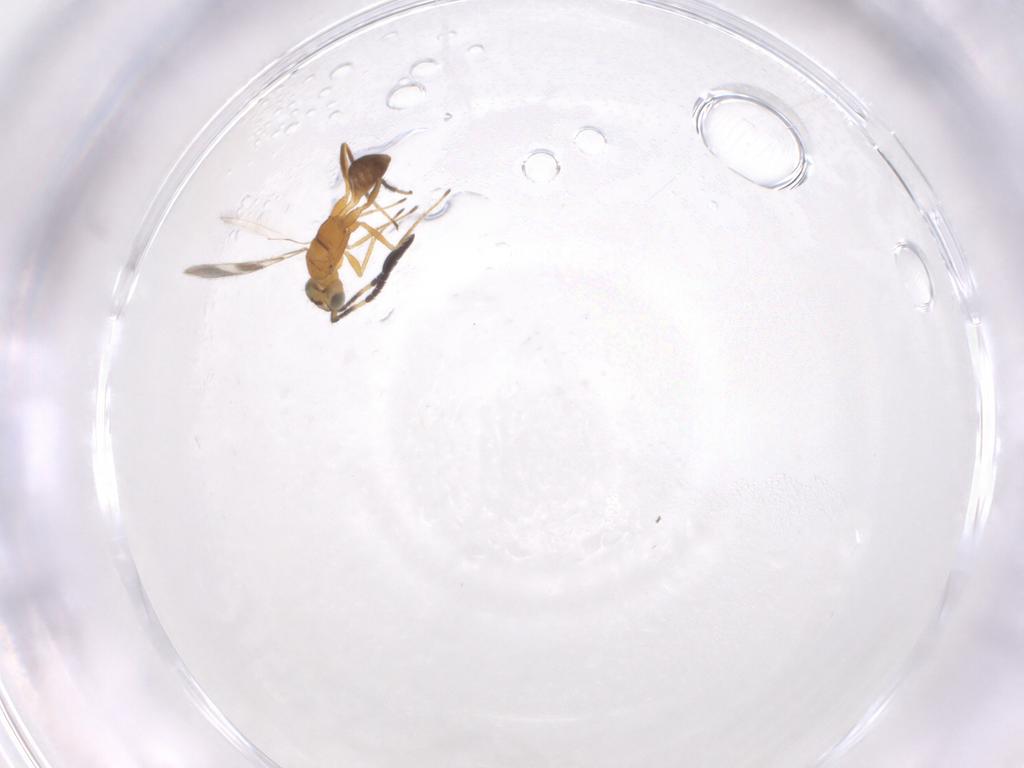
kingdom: Animalia
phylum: Arthropoda
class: Insecta
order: Hymenoptera
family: Mymaridae
